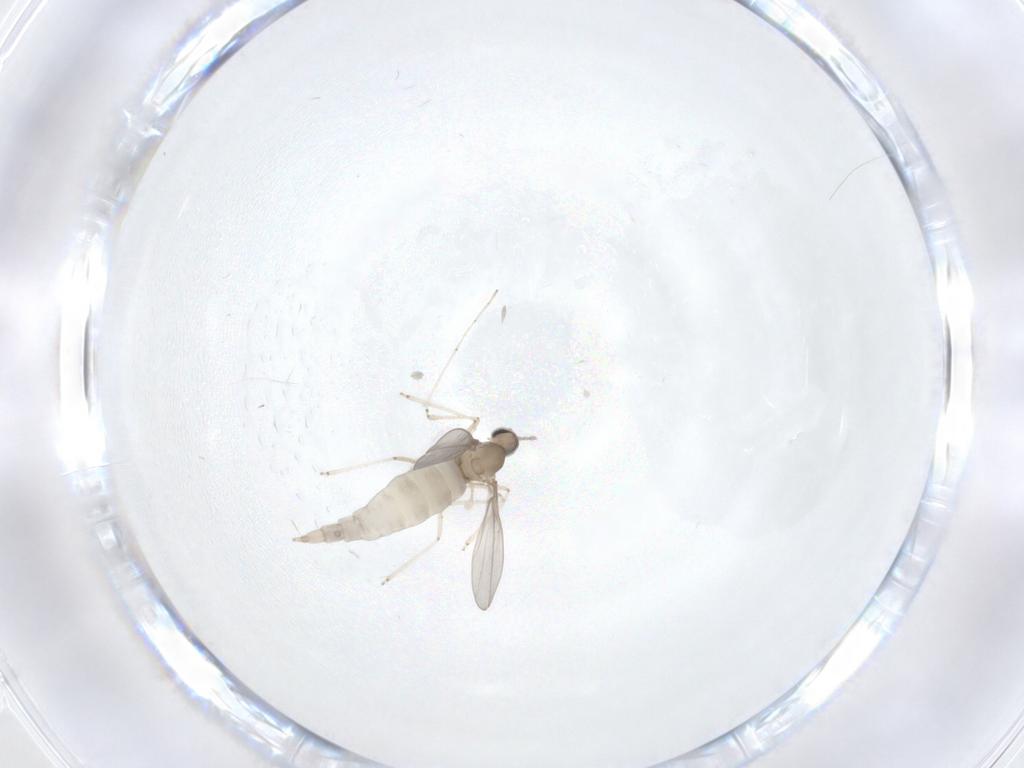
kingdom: Animalia
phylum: Arthropoda
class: Insecta
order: Diptera
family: Cecidomyiidae
